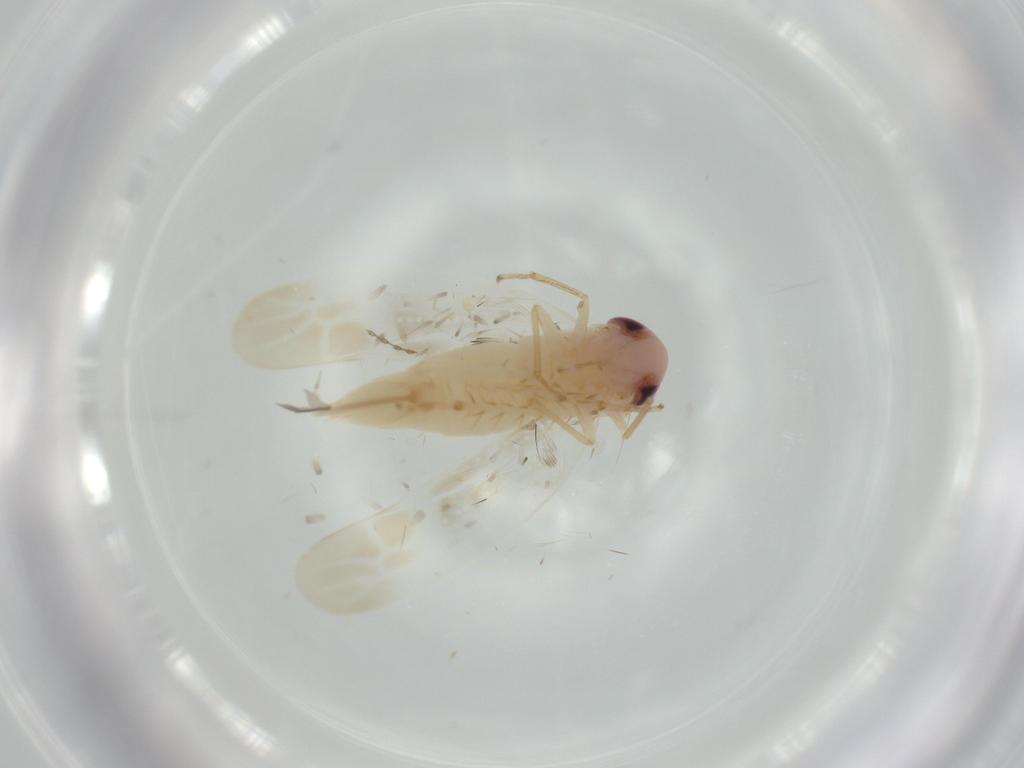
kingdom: Animalia
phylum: Arthropoda
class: Insecta
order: Hemiptera
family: Cicadellidae
